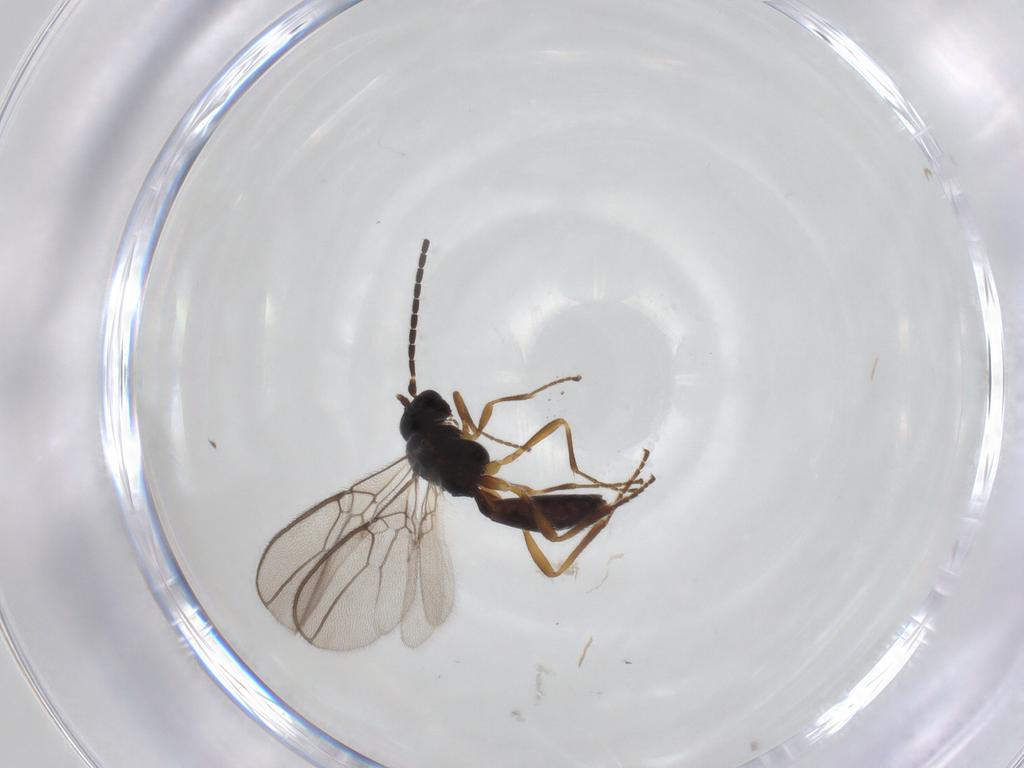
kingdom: Animalia
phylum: Arthropoda
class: Insecta
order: Hymenoptera
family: Braconidae
